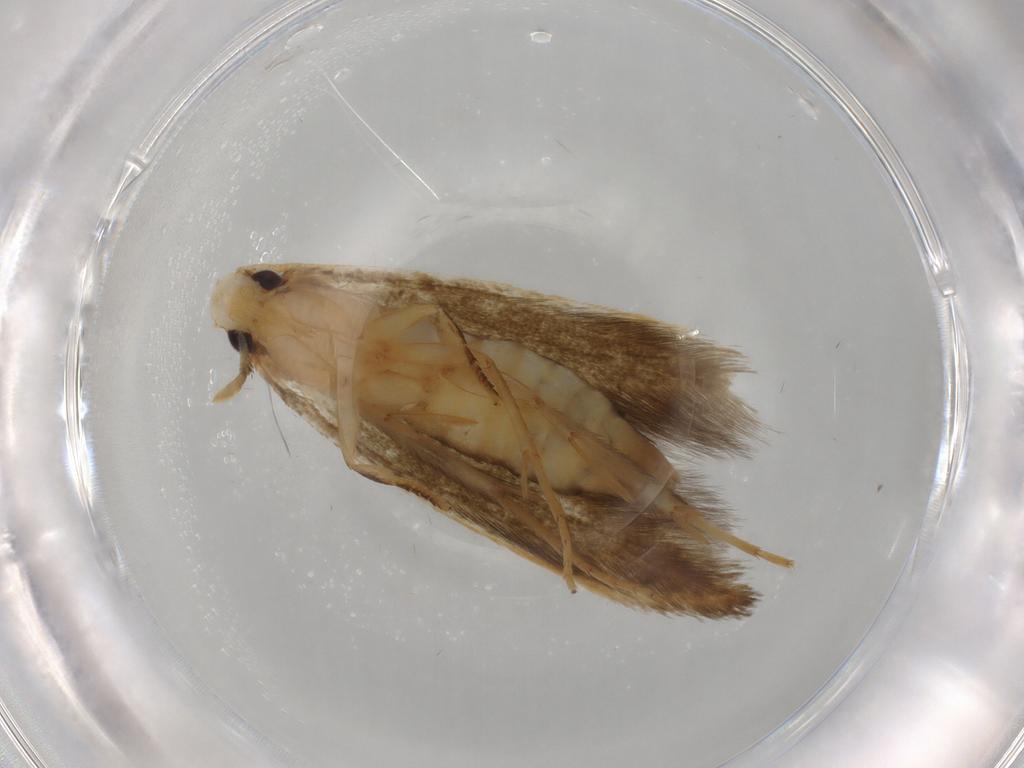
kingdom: Animalia
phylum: Arthropoda
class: Insecta
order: Lepidoptera
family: Tineidae
